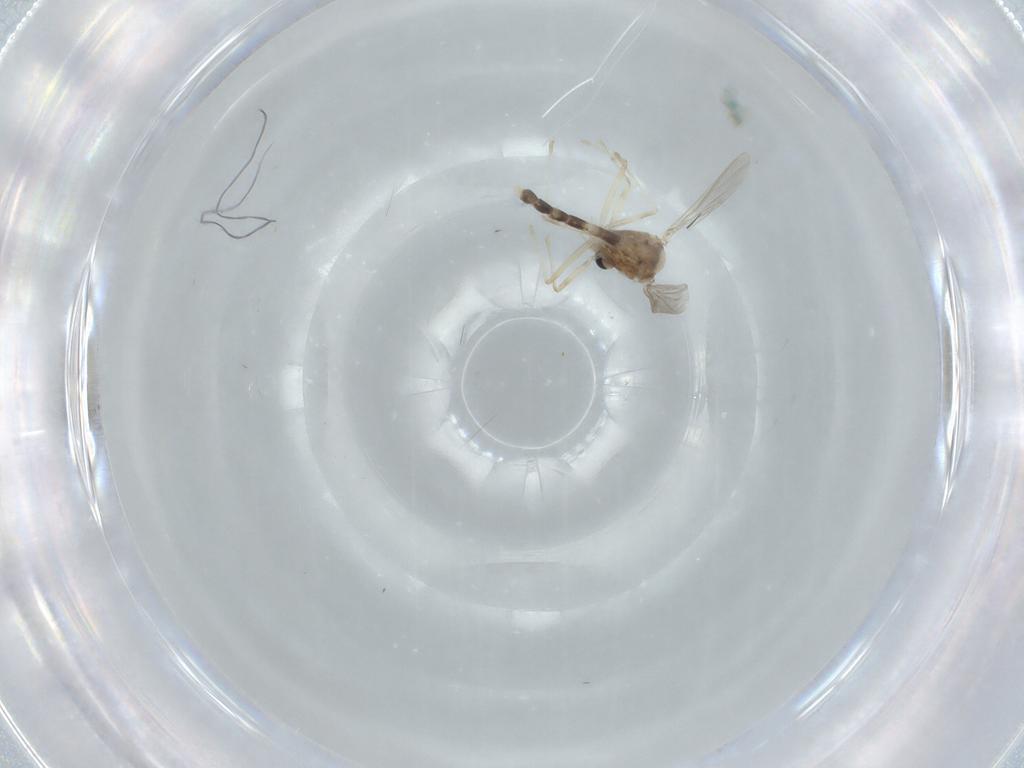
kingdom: Animalia
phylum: Arthropoda
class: Insecta
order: Diptera
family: Chironomidae
